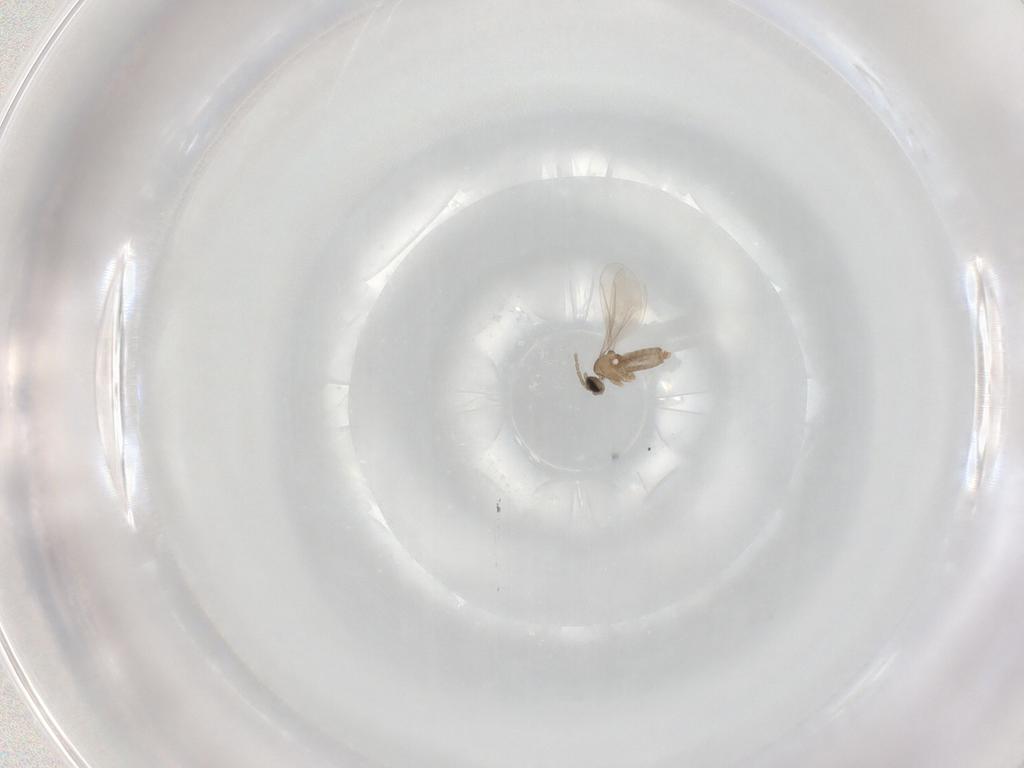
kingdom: Animalia
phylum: Arthropoda
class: Insecta
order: Diptera
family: Cecidomyiidae
